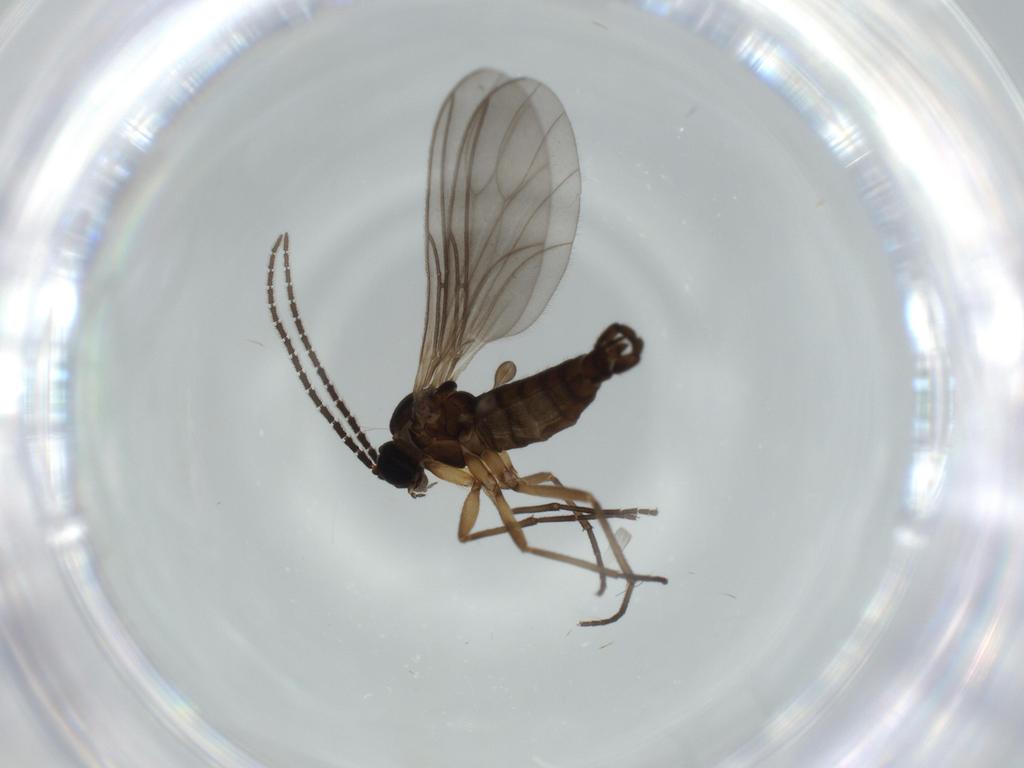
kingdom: Animalia
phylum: Arthropoda
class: Insecta
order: Diptera
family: Sciaridae
